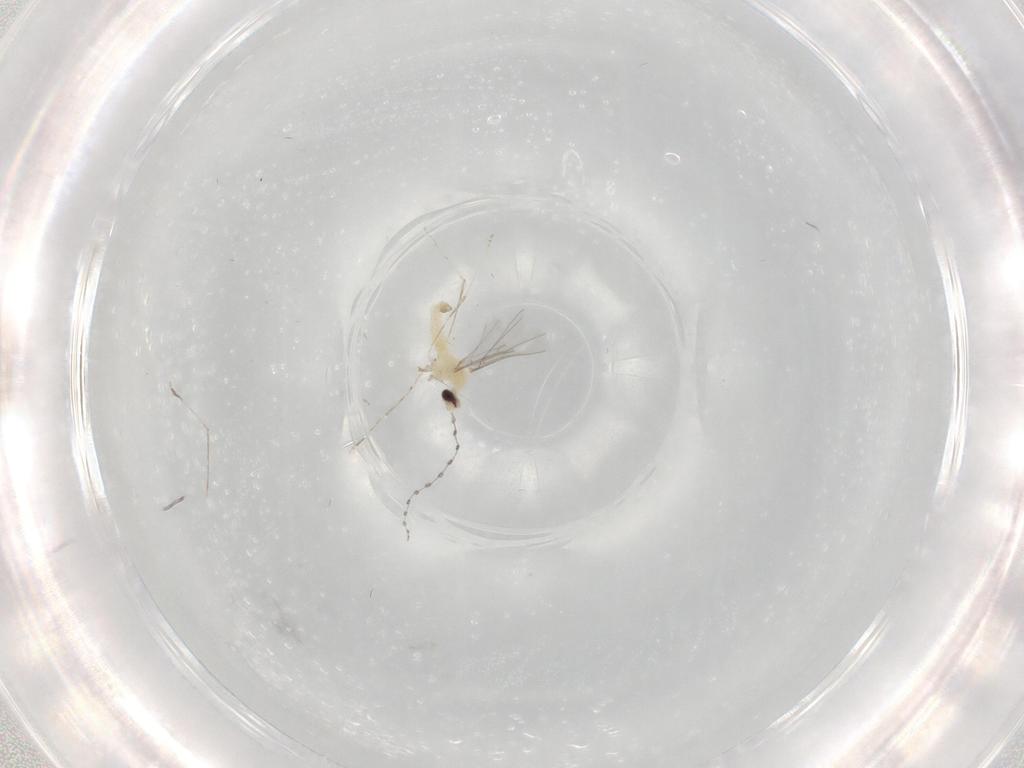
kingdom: Animalia
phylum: Arthropoda
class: Insecta
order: Diptera
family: Cecidomyiidae
